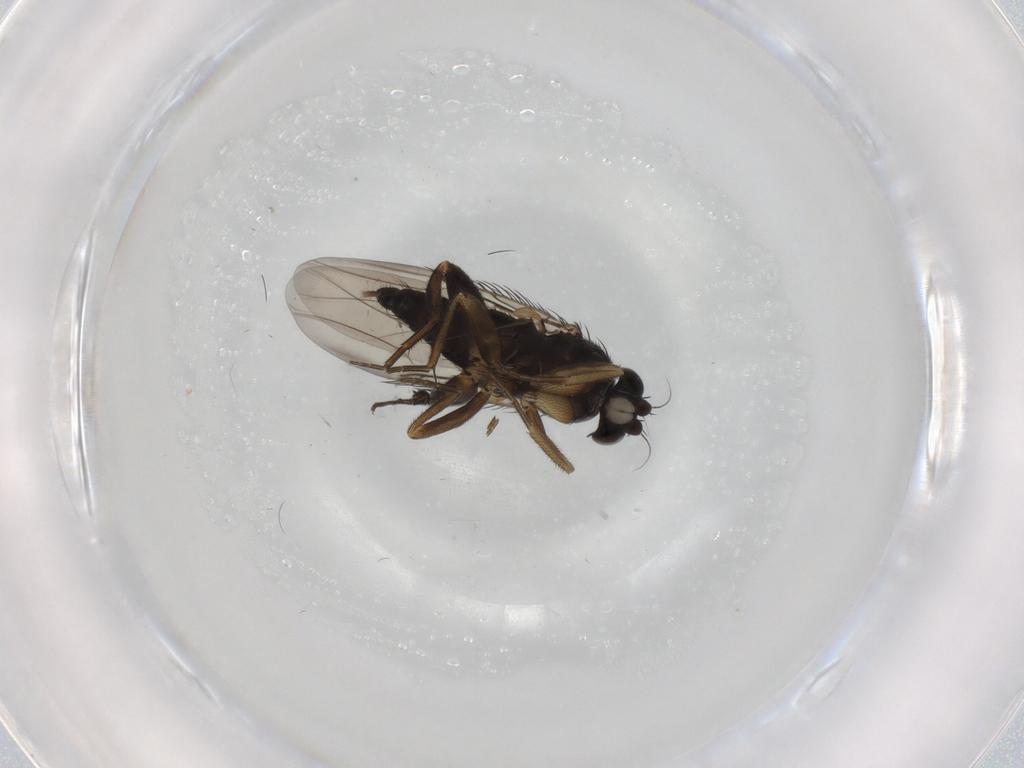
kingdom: Animalia
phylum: Arthropoda
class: Insecta
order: Diptera
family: Phoridae
